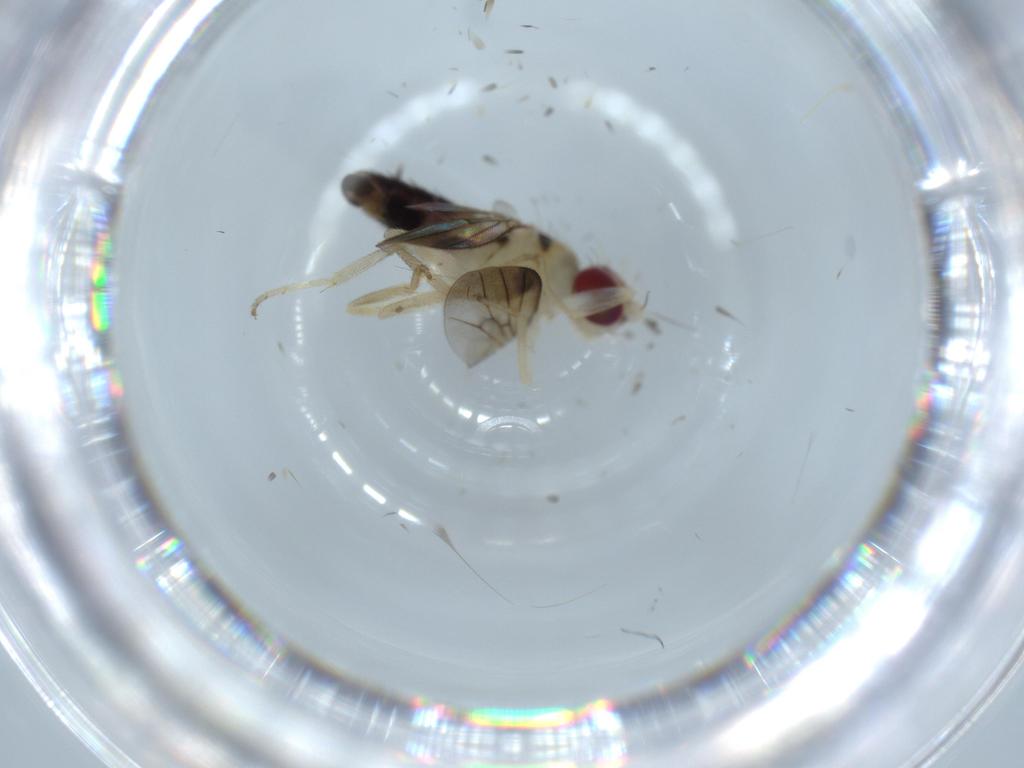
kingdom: Animalia
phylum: Arthropoda
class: Insecta
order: Diptera
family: Clusiidae
